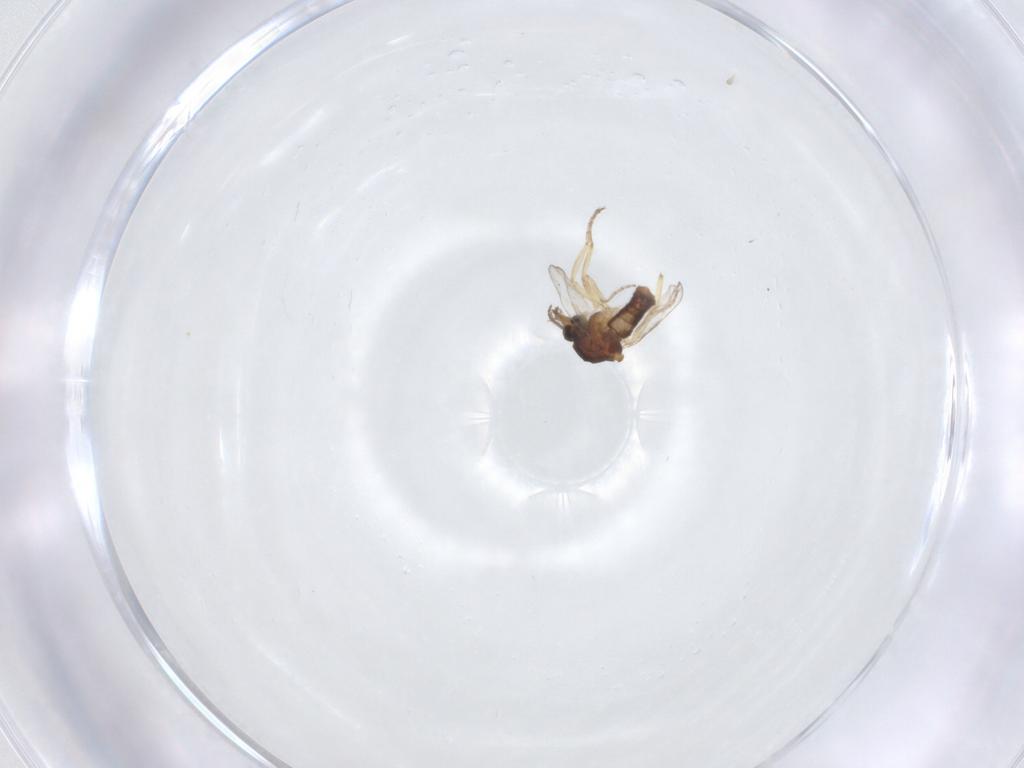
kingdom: Animalia
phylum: Arthropoda
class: Insecta
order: Diptera
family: Ceratopogonidae
